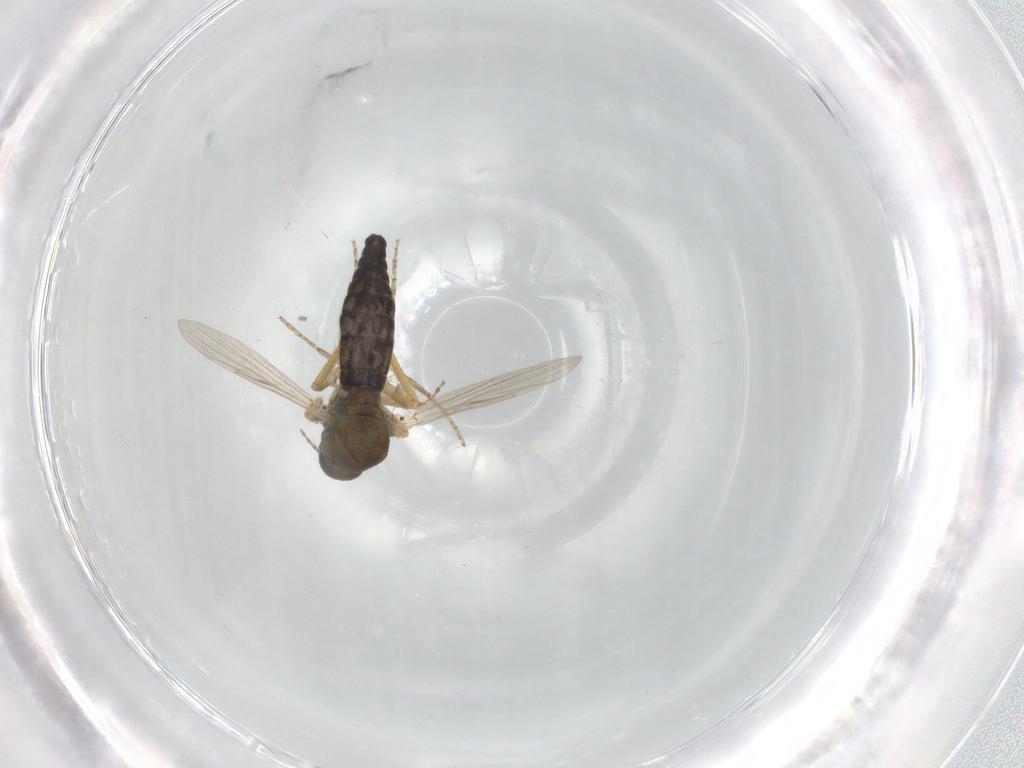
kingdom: Animalia
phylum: Arthropoda
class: Insecta
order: Diptera
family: Ceratopogonidae
